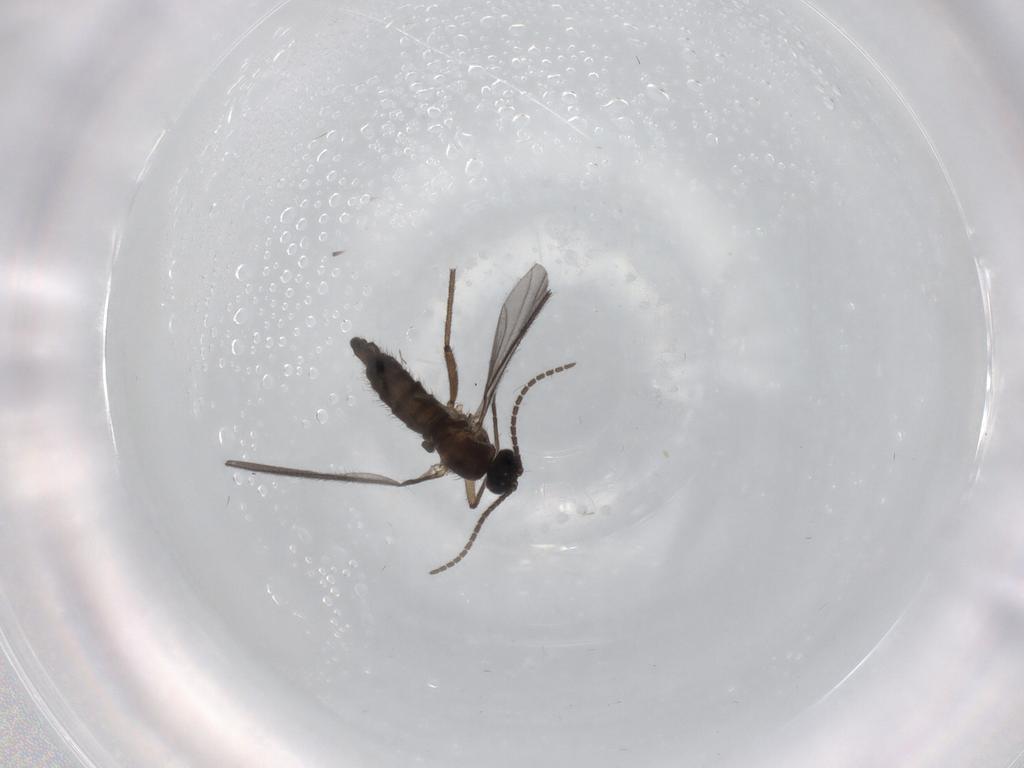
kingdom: Animalia
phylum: Arthropoda
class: Insecta
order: Diptera
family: Sciaridae
